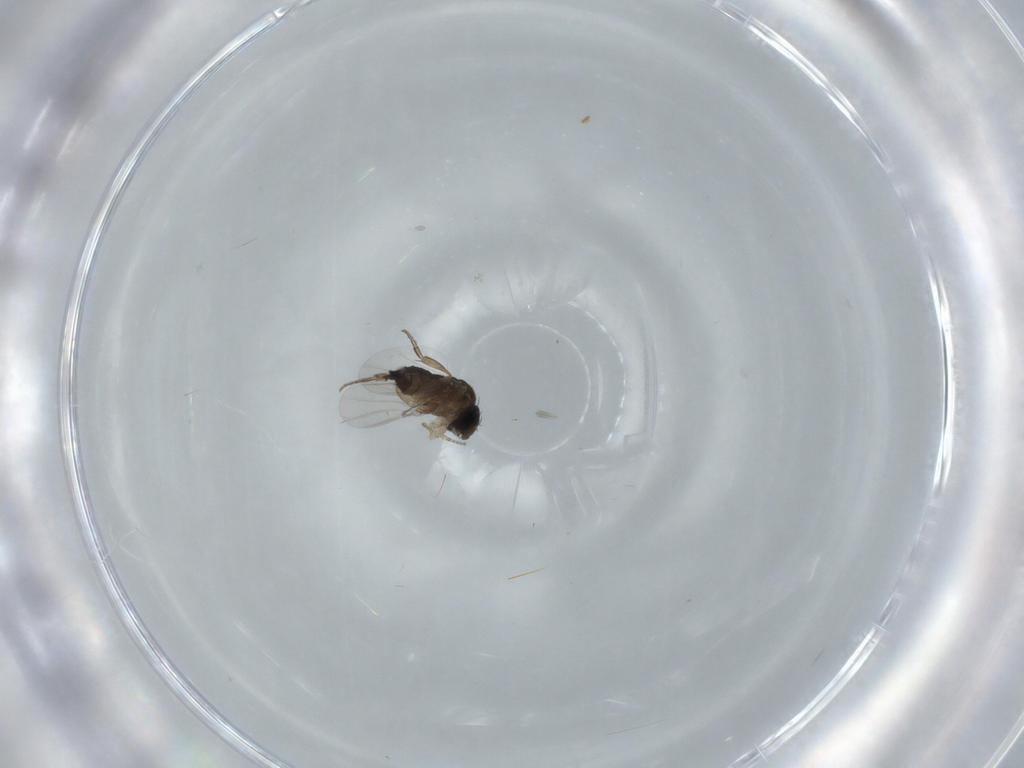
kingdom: Animalia
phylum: Arthropoda
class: Insecta
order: Diptera
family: Phoridae
